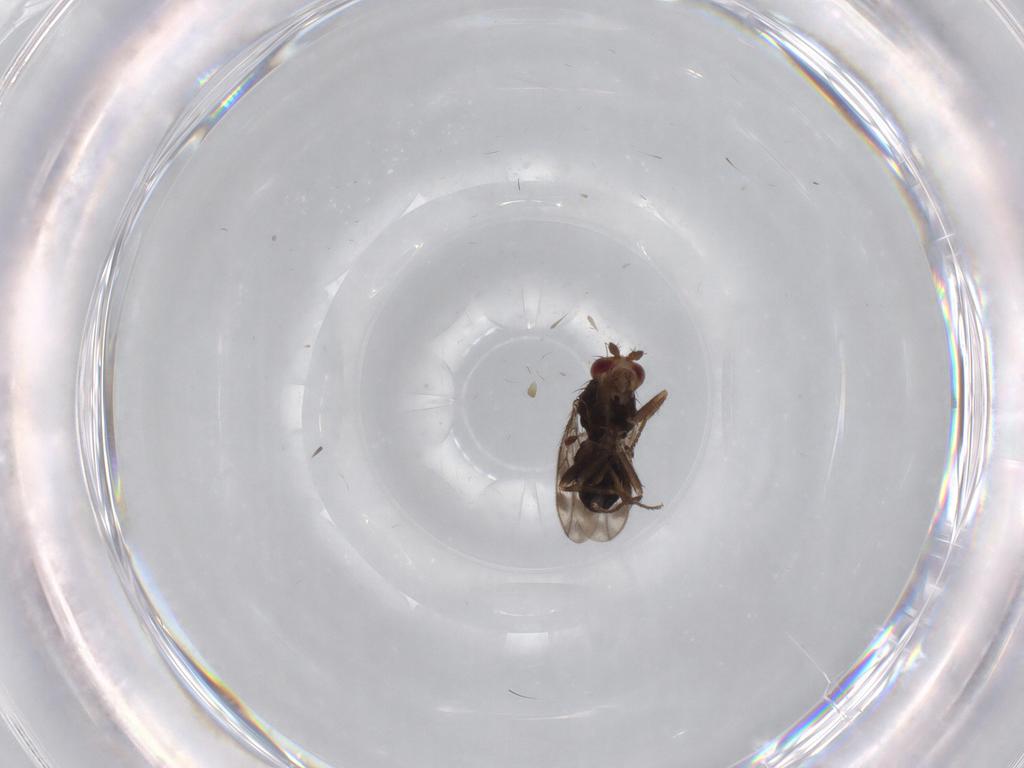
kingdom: Animalia
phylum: Arthropoda
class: Insecta
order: Diptera
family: Sphaeroceridae
